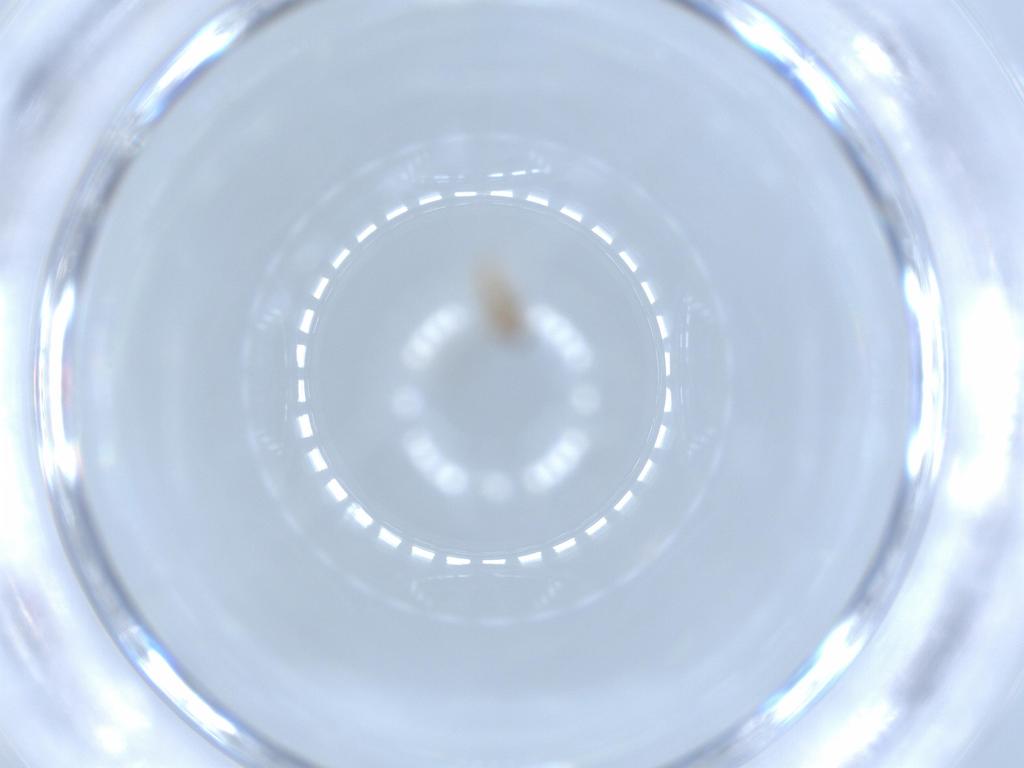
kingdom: Animalia
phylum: Arthropoda
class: Insecta
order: Diptera
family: Cecidomyiidae
